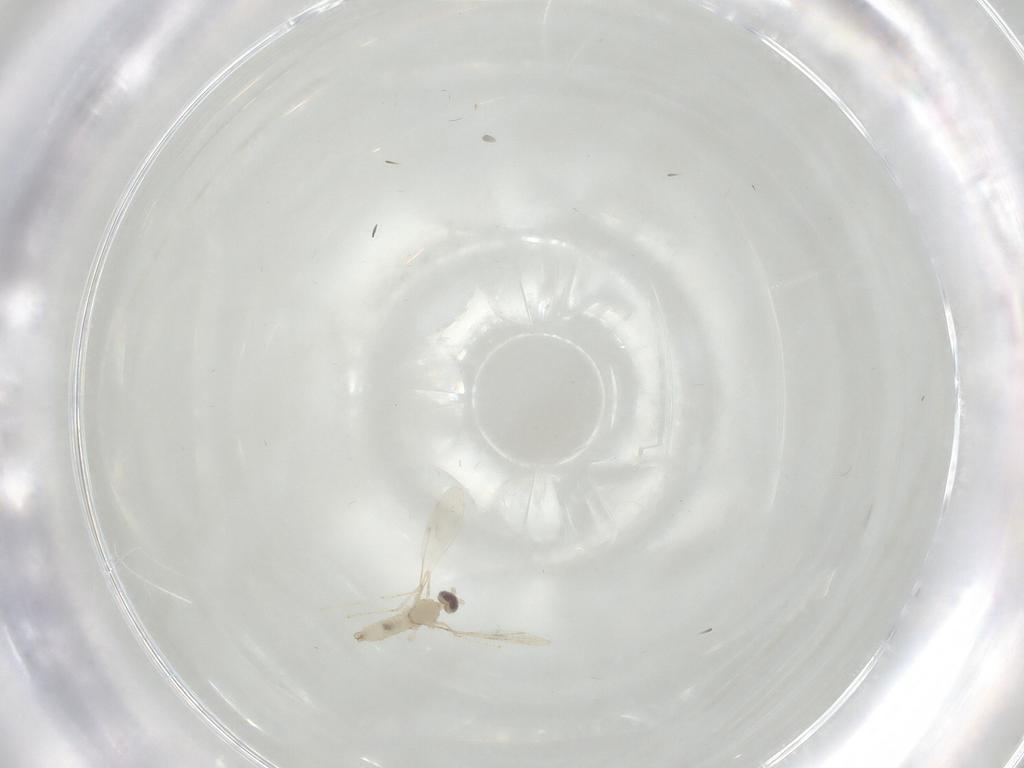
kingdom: Animalia
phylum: Arthropoda
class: Insecta
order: Diptera
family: Cecidomyiidae
